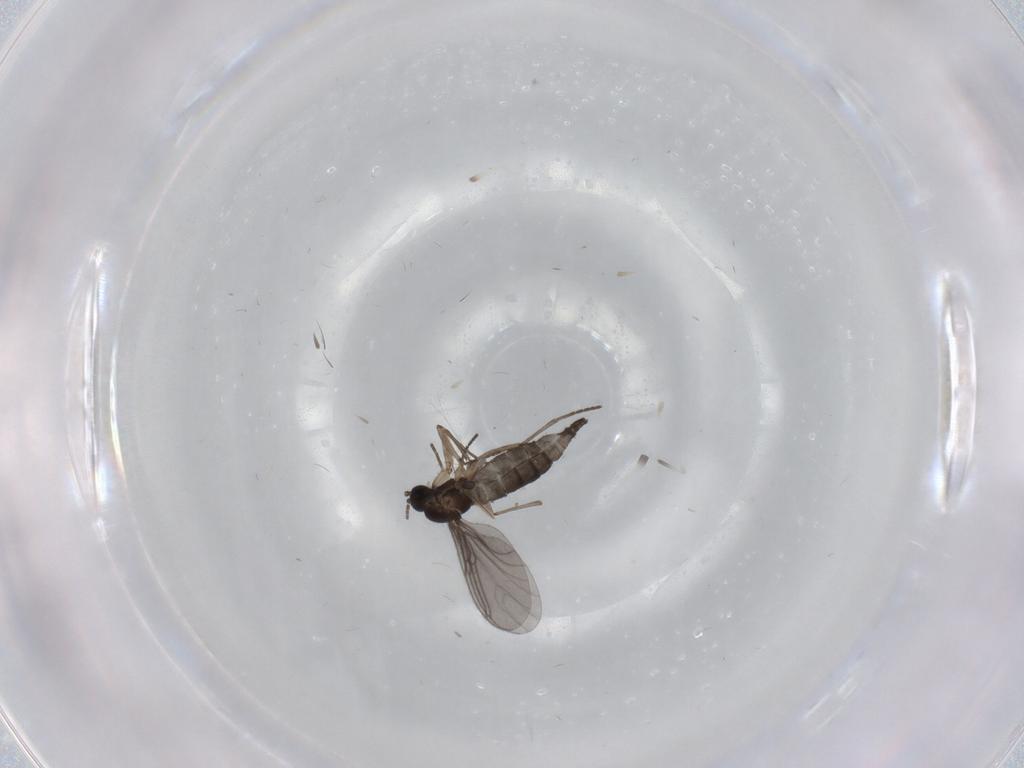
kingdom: Animalia
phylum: Arthropoda
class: Insecta
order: Diptera
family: Sciaridae
